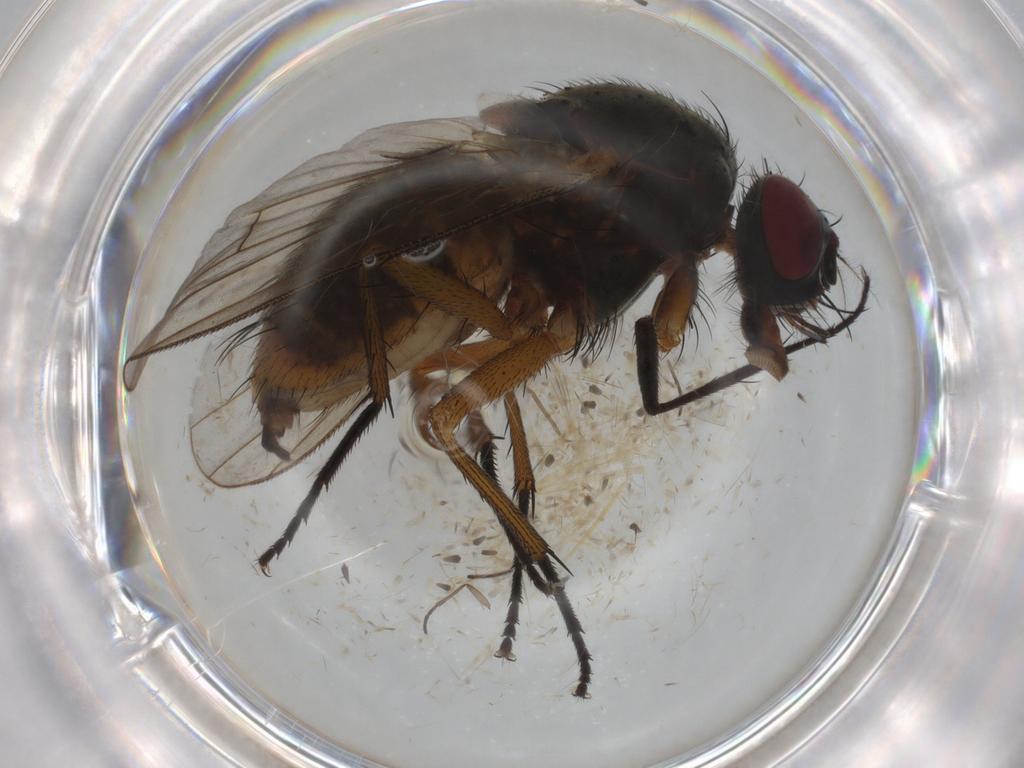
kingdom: Animalia
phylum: Arthropoda
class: Insecta
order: Diptera
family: Muscidae
